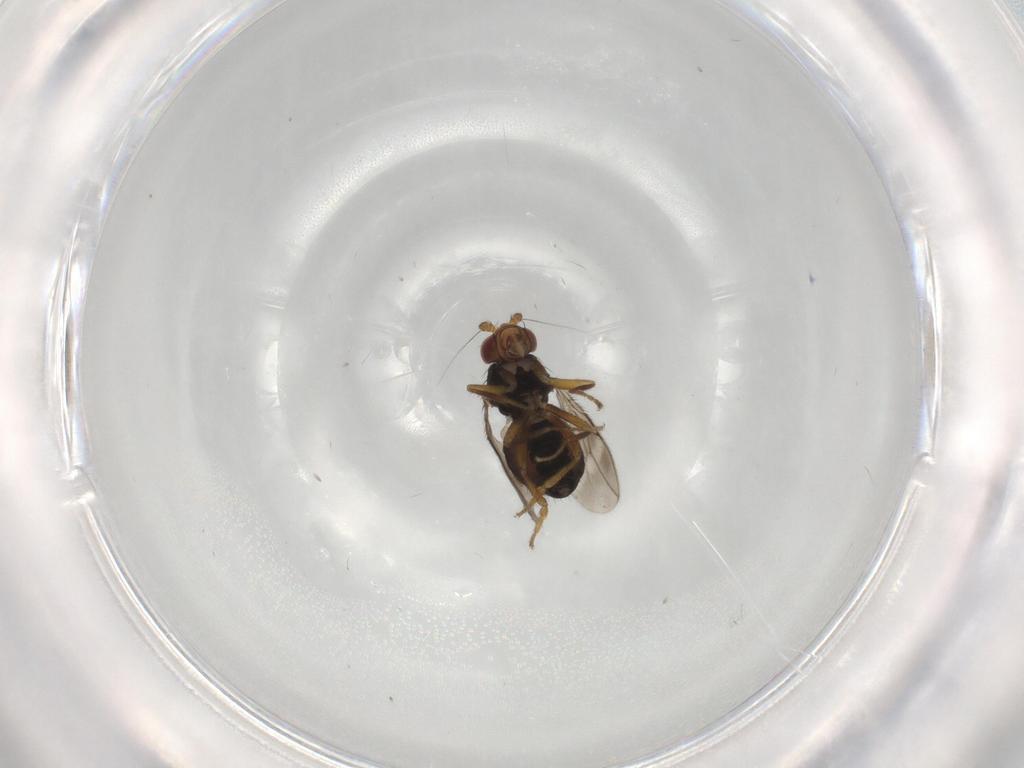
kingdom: Animalia
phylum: Arthropoda
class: Insecta
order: Diptera
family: Sphaeroceridae
